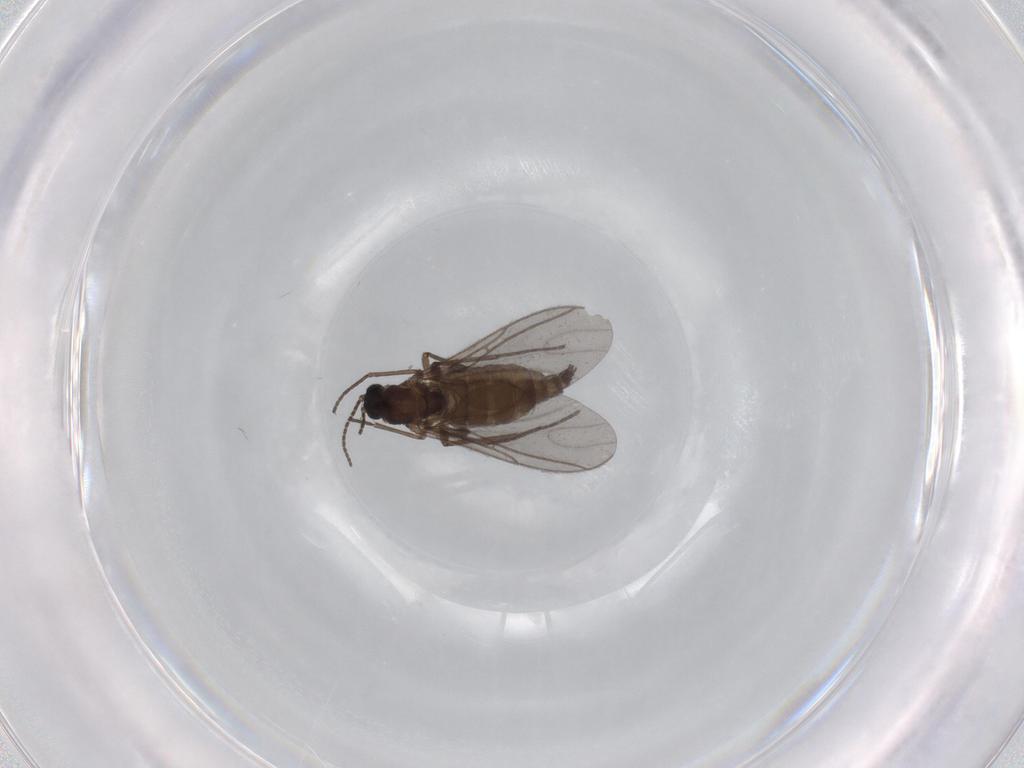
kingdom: Animalia
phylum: Arthropoda
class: Insecta
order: Diptera
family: Sciaridae
